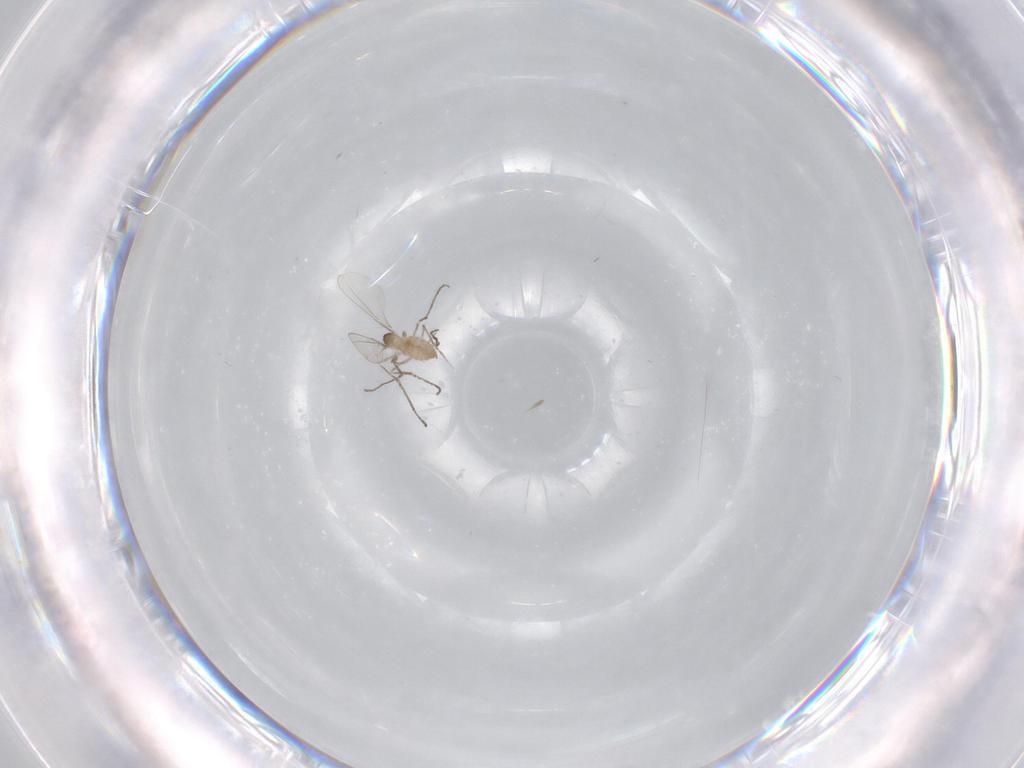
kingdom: Animalia
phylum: Arthropoda
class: Insecta
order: Diptera
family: Cecidomyiidae
